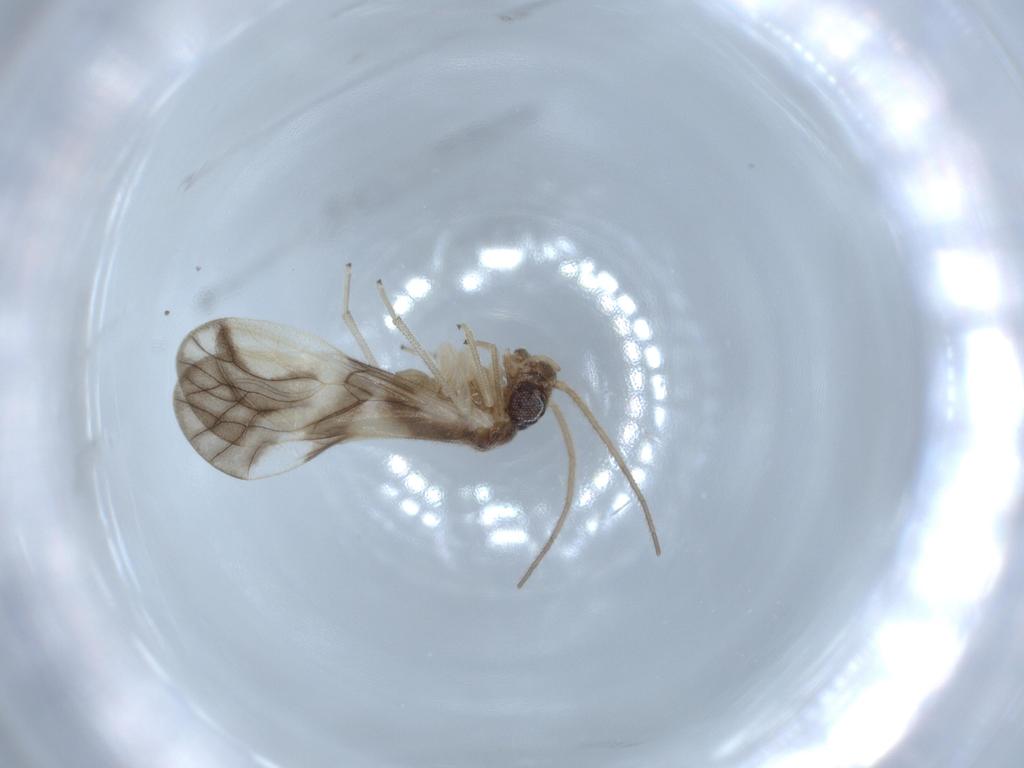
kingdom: Animalia
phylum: Arthropoda
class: Insecta
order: Psocodea
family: Caeciliusidae
